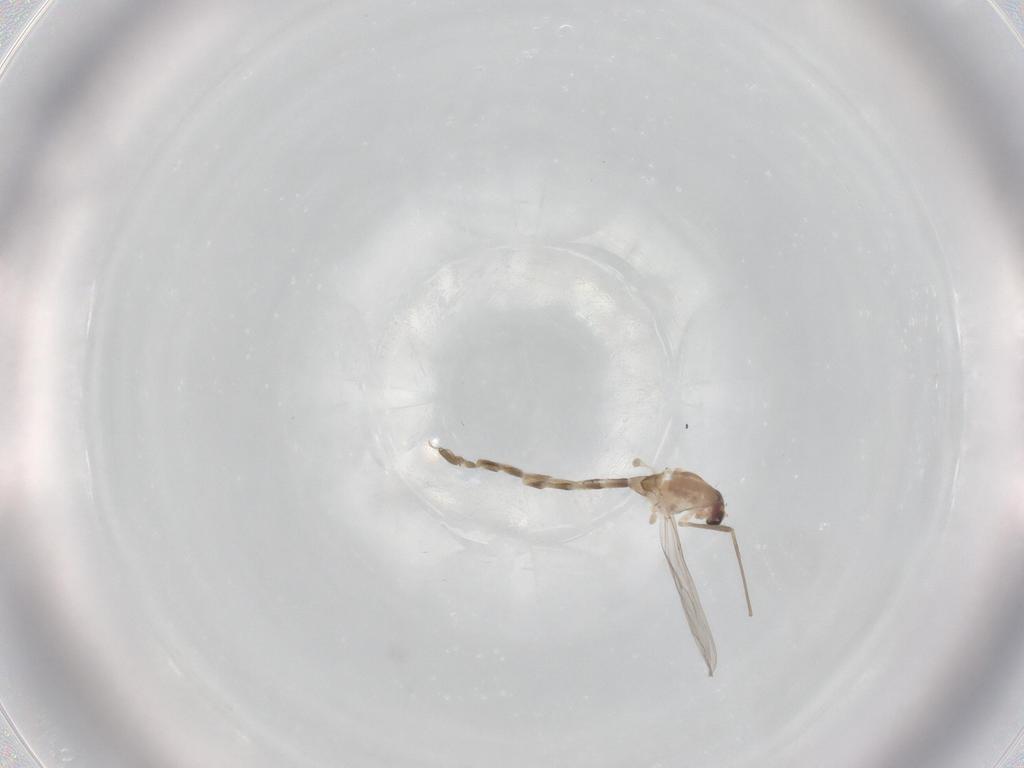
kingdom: Animalia
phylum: Arthropoda
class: Insecta
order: Diptera
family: Chironomidae
